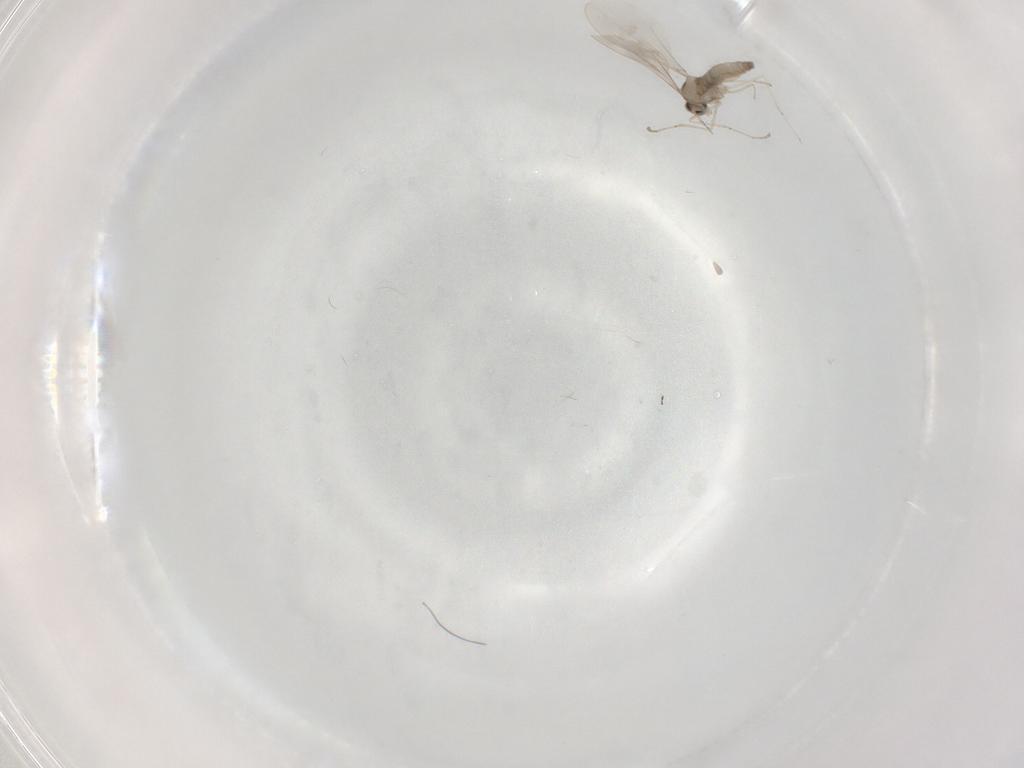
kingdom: Animalia
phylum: Arthropoda
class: Insecta
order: Diptera
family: Cecidomyiidae
